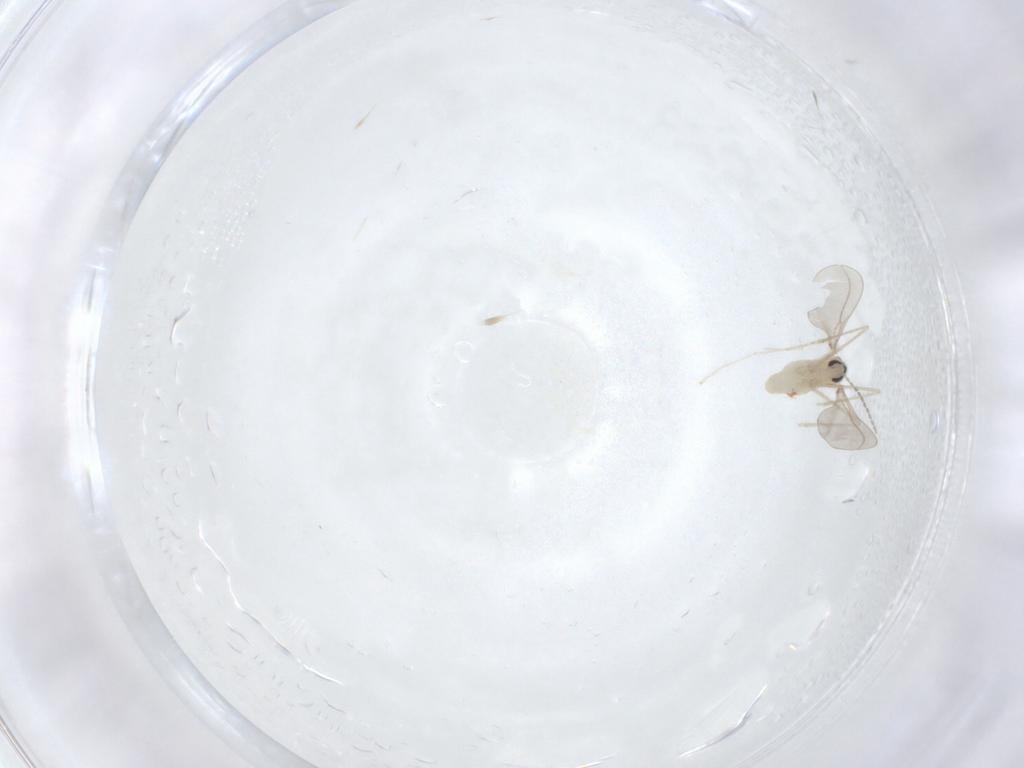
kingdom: Animalia
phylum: Arthropoda
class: Insecta
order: Diptera
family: Cecidomyiidae
